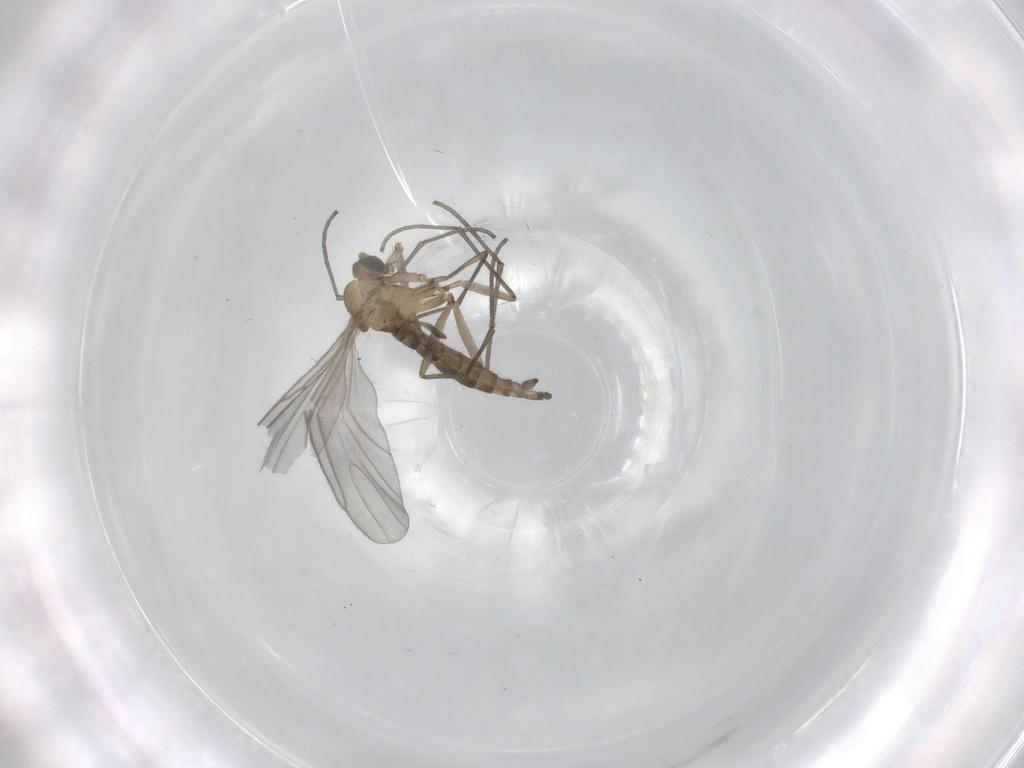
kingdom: Animalia
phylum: Arthropoda
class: Insecta
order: Diptera
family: Sciaridae
